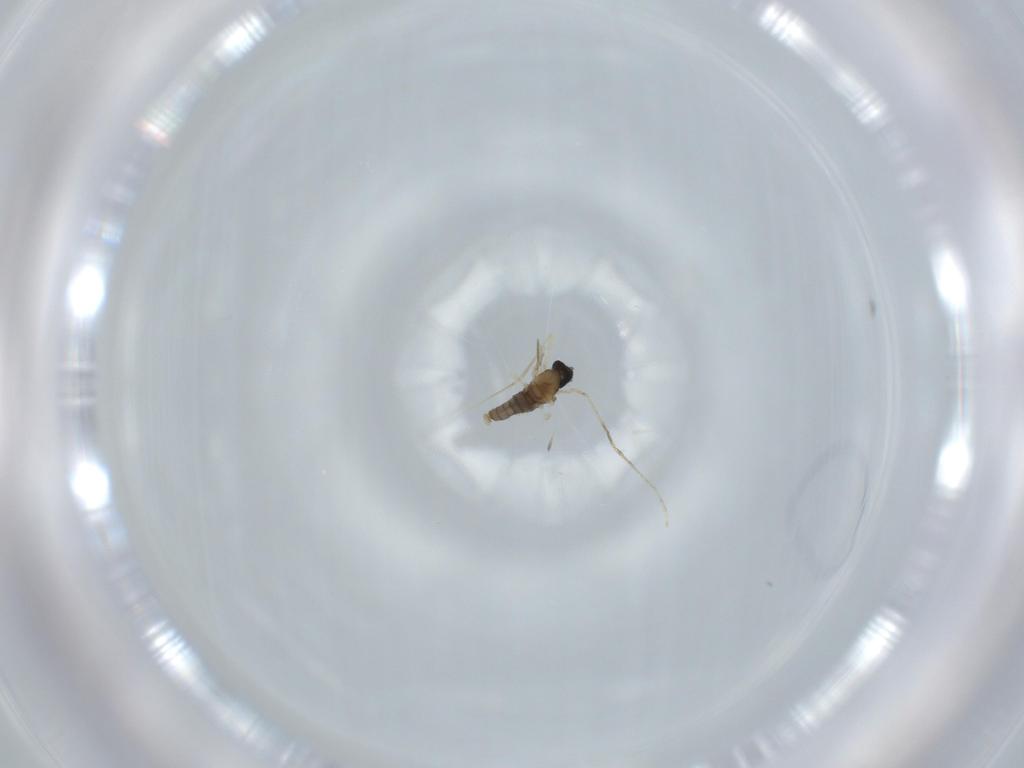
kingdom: Animalia
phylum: Arthropoda
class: Insecta
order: Diptera
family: Cecidomyiidae
